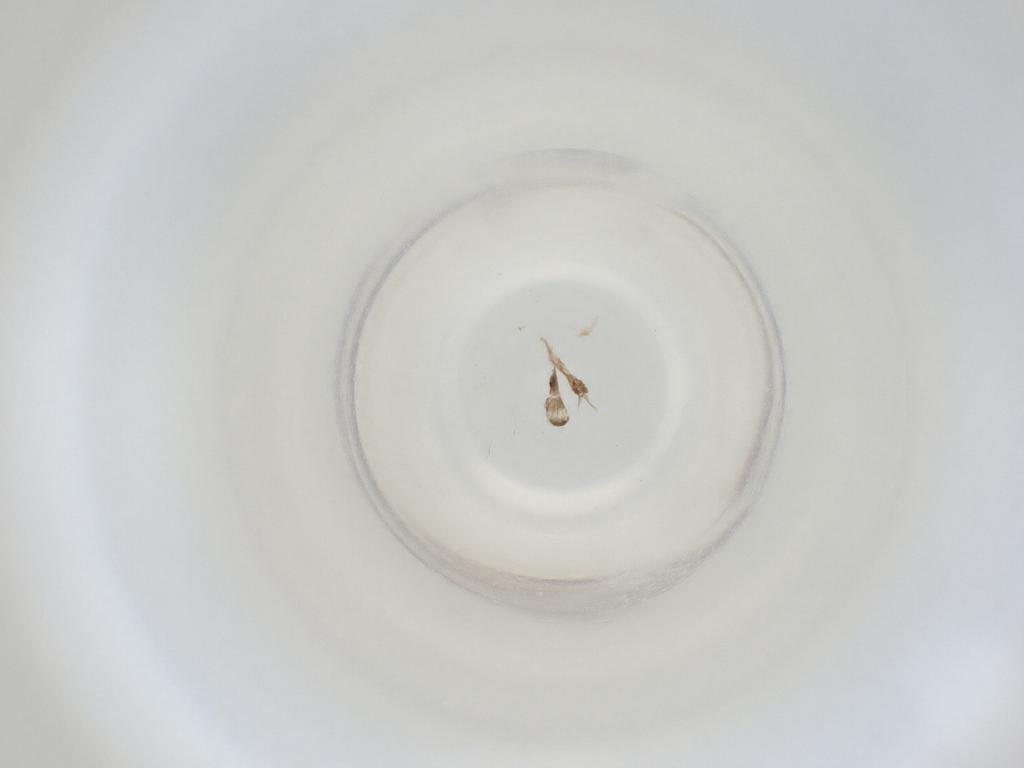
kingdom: Animalia
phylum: Arthropoda
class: Insecta
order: Diptera
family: Cecidomyiidae
